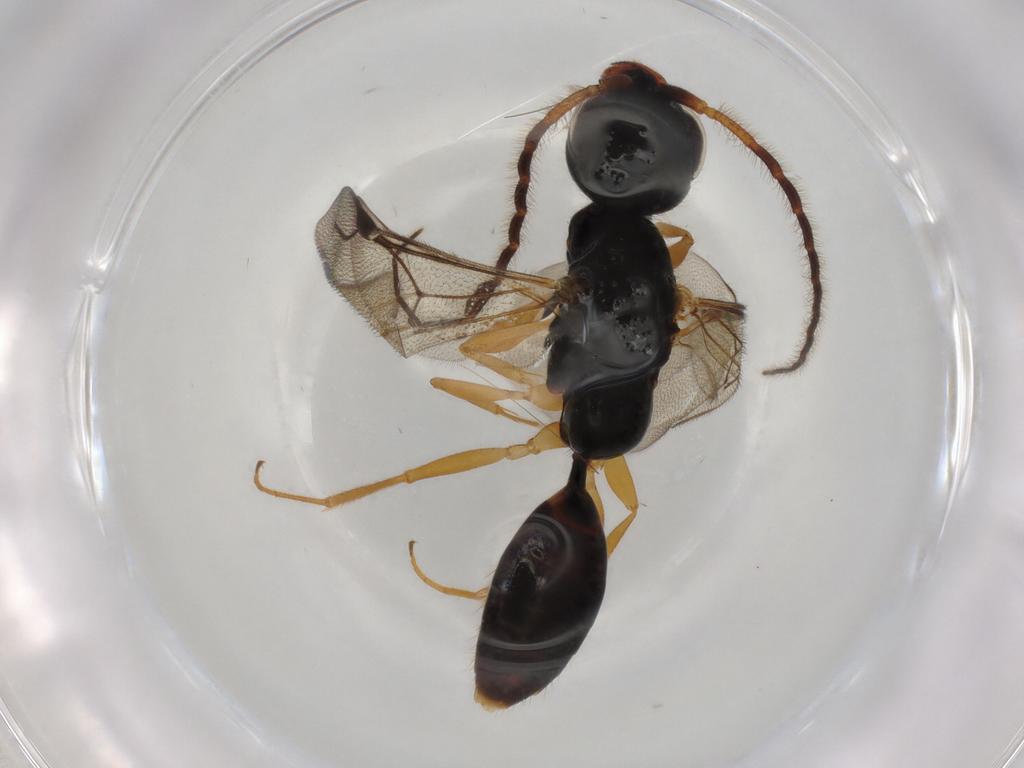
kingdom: Animalia
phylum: Arthropoda
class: Insecta
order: Hymenoptera
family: Bethylidae
